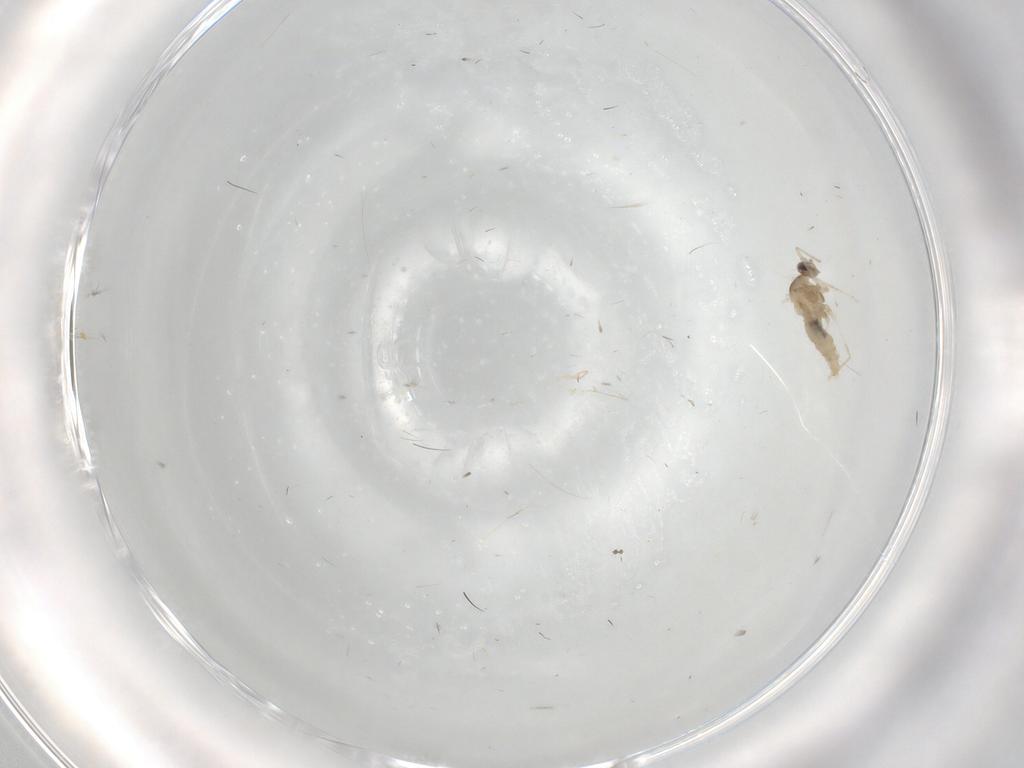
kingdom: Animalia
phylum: Arthropoda
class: Insecta
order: Diptera
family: Cecidomyiidae
